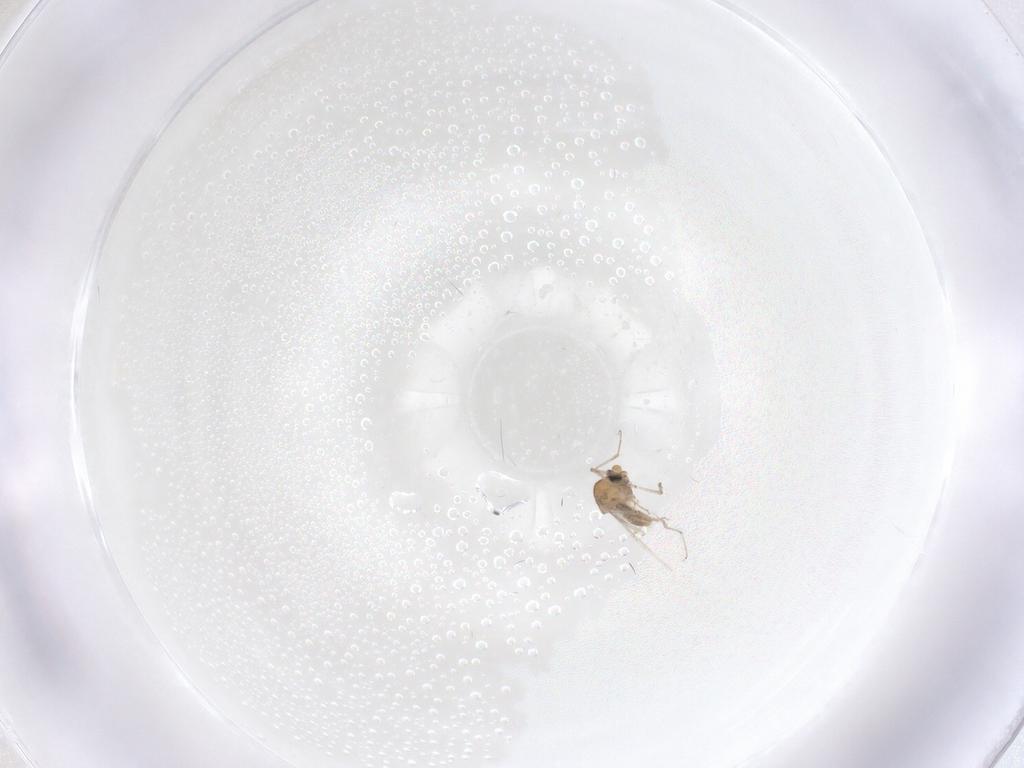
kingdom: Animalia
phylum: Arthropoda
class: Insecta
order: Diptera
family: Ceratopogonidae
